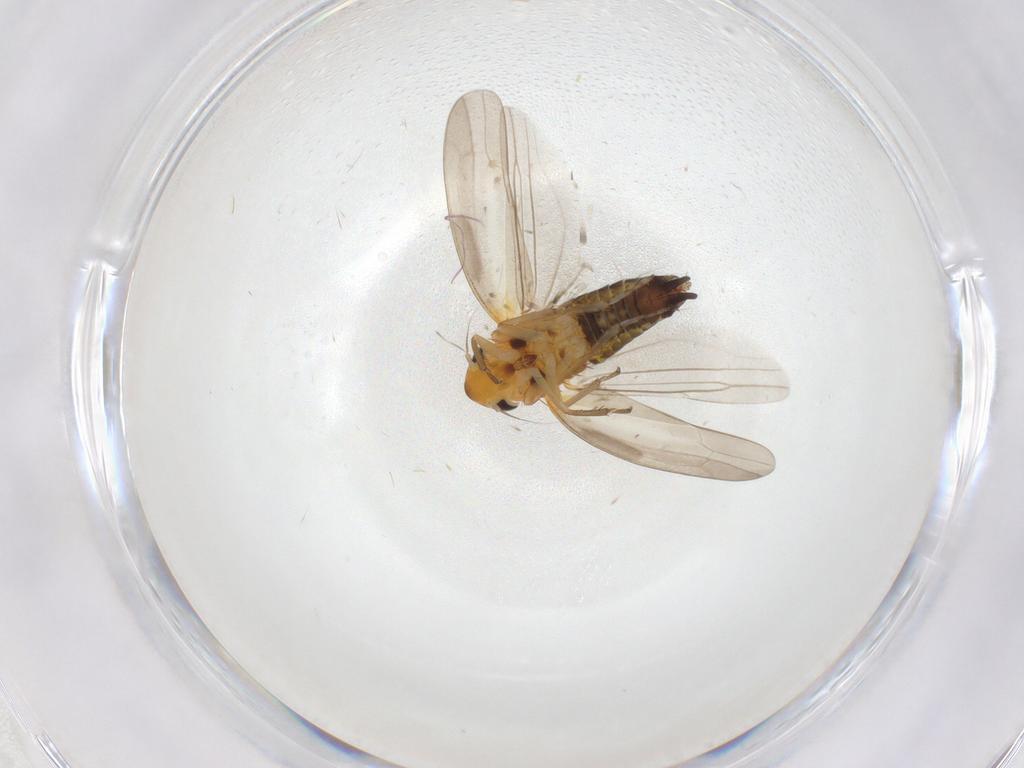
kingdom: Animalia
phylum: Arthropoda
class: Insecta
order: Hemiptera
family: Cicadellidae
